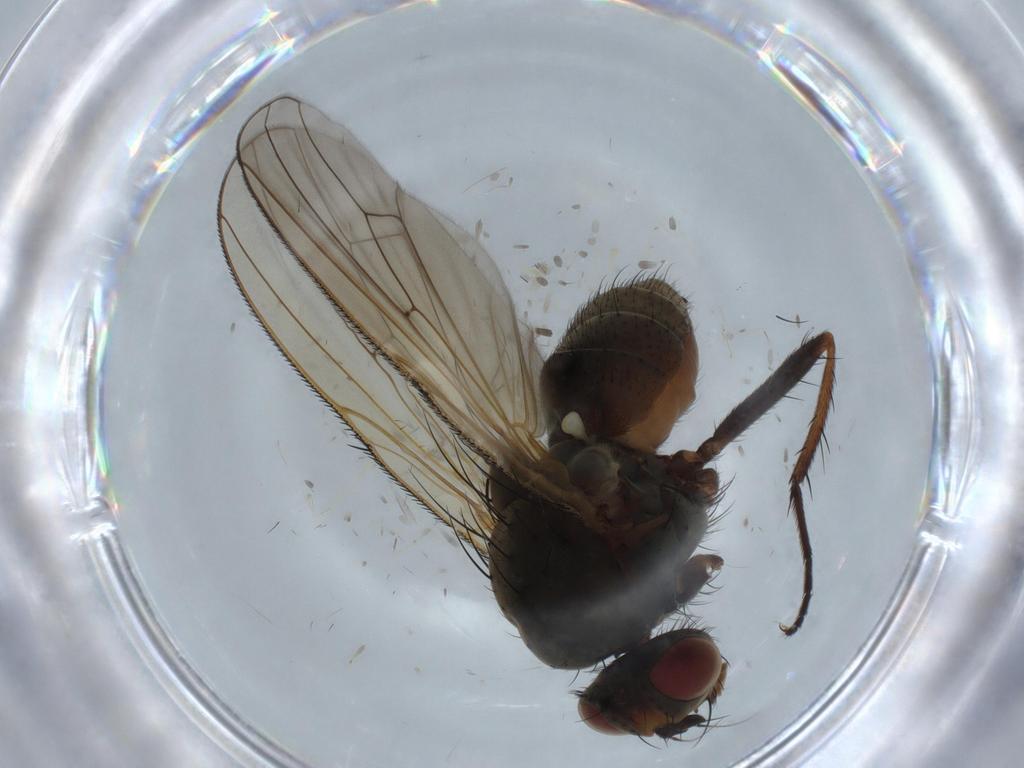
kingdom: Animalia
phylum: Arthropoda
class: Insecta
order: Diptera
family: Anthomyiidae
